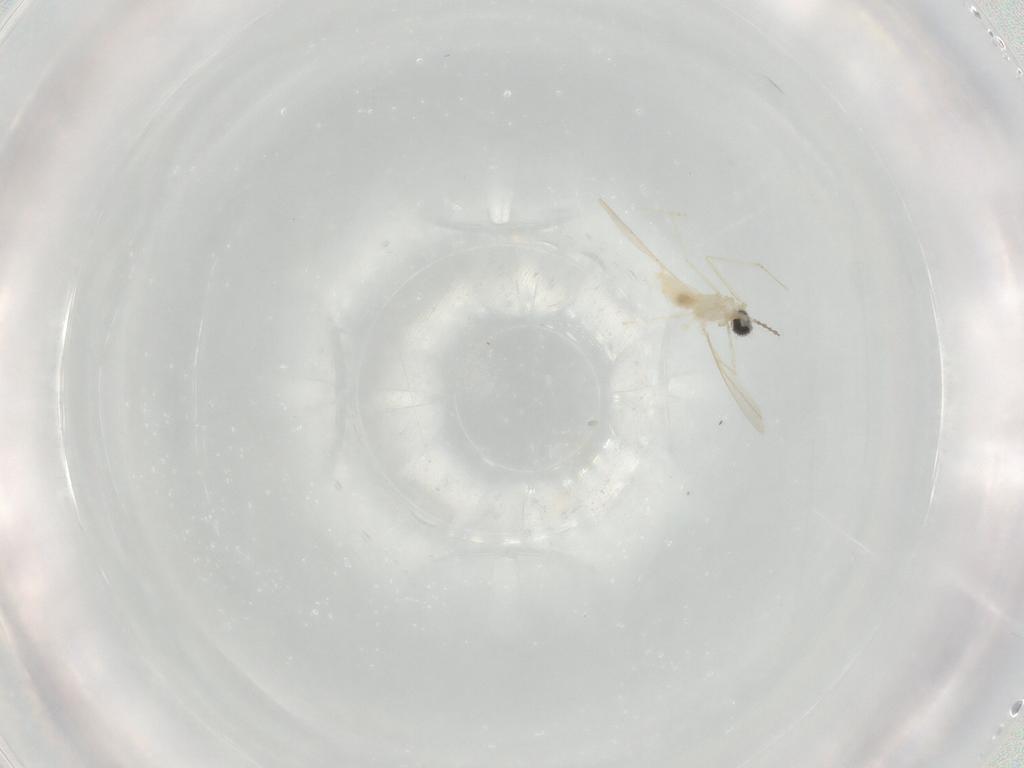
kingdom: Animalia
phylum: Arthropoda
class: Insecta
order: Diptera
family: Cecidomyiidae
